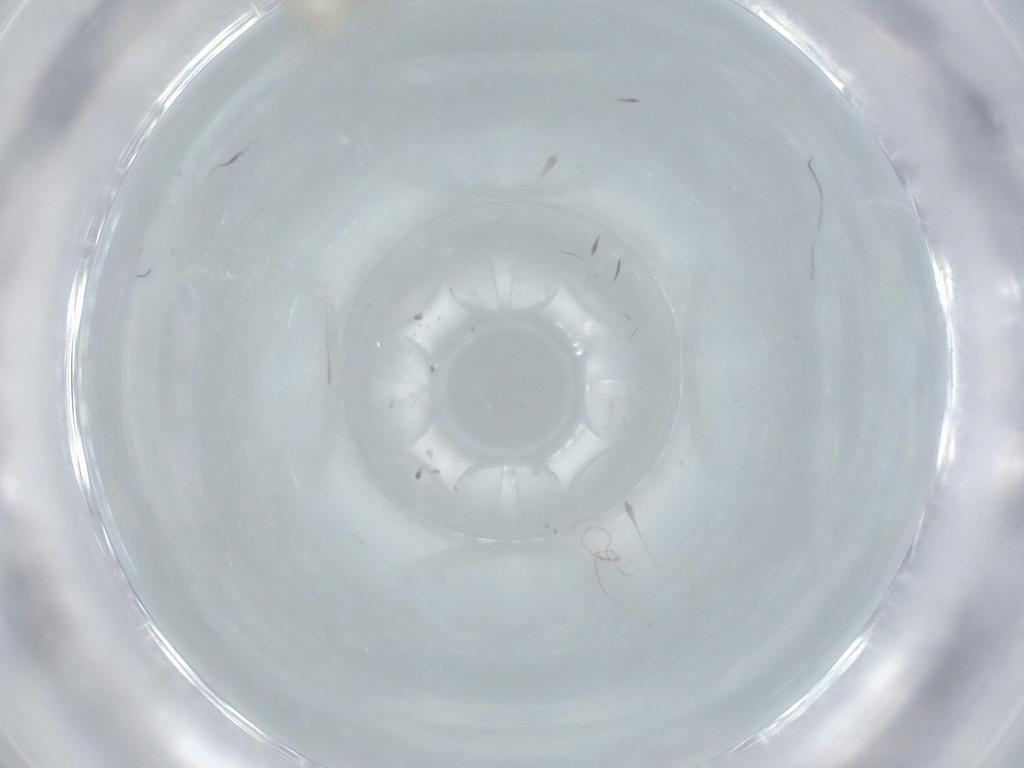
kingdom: Animalia
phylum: Arthropoda
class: Insecta
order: Psocodea
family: Caeciliusidae
